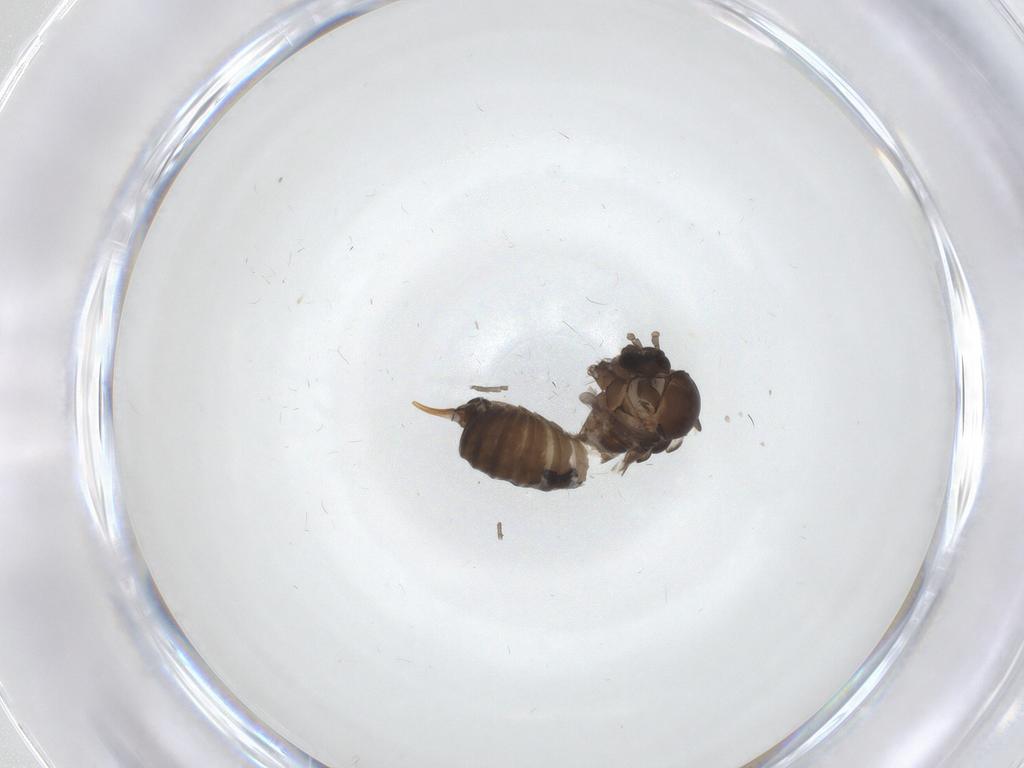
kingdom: Animalia
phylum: Arthropoda
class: Insecta
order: Diptera
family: Psychodidae
